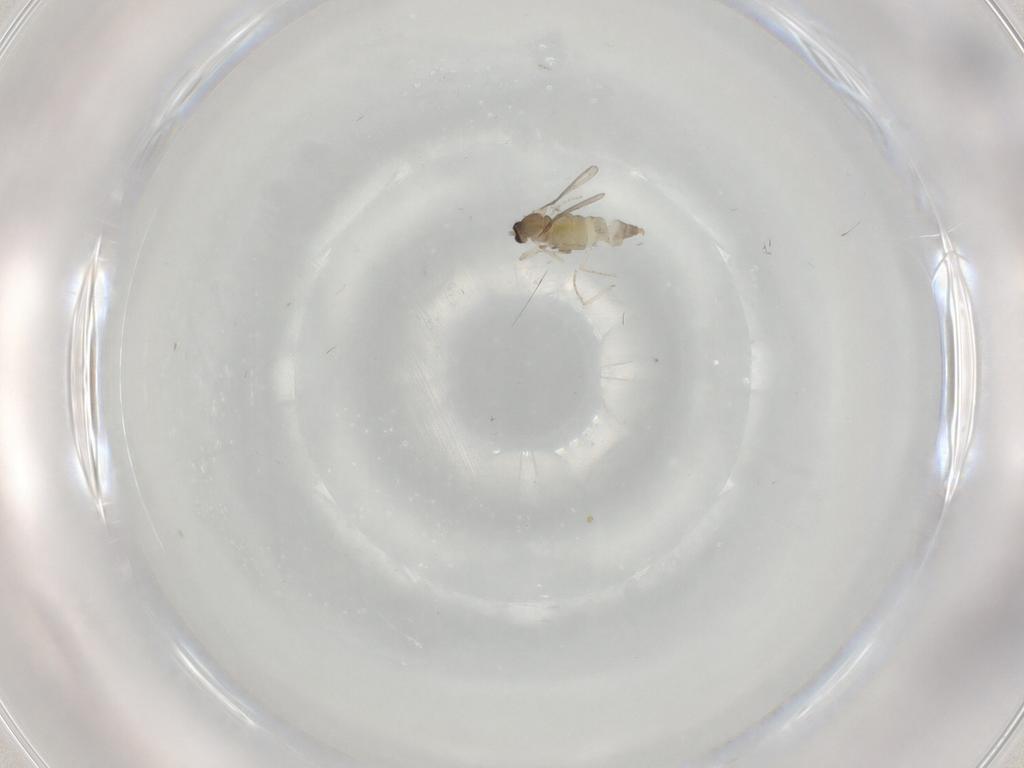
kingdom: Animalia
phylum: Arthropoda
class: Insecta
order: Diptera
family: Cecidomyiidae
